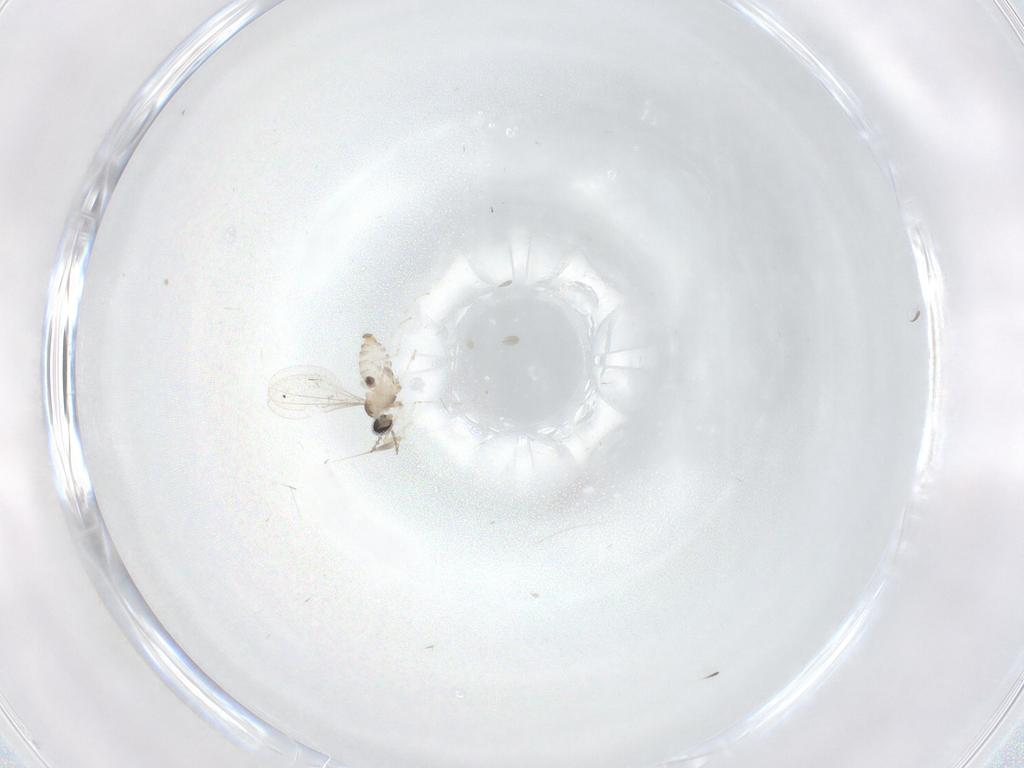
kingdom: Animalia
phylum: Arthropoda
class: Insecta
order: Diptera
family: Cecidomyiidae
